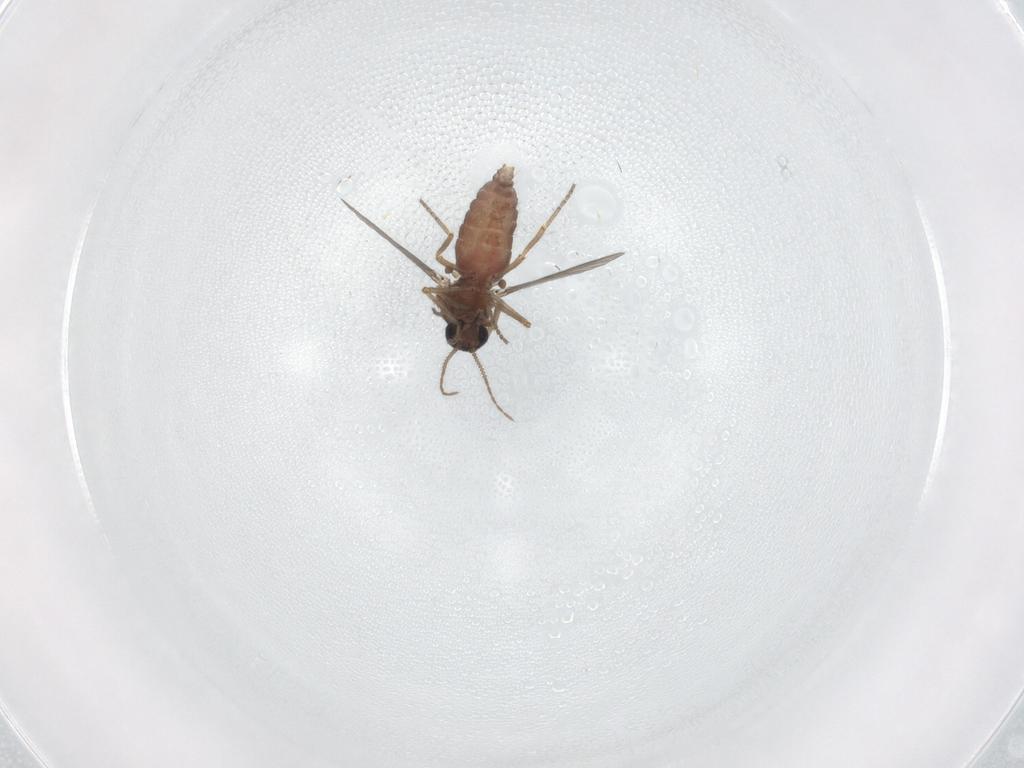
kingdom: Animalia
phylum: Arthropoda
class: Insecta
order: Diptera
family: Ceratopogonidae
